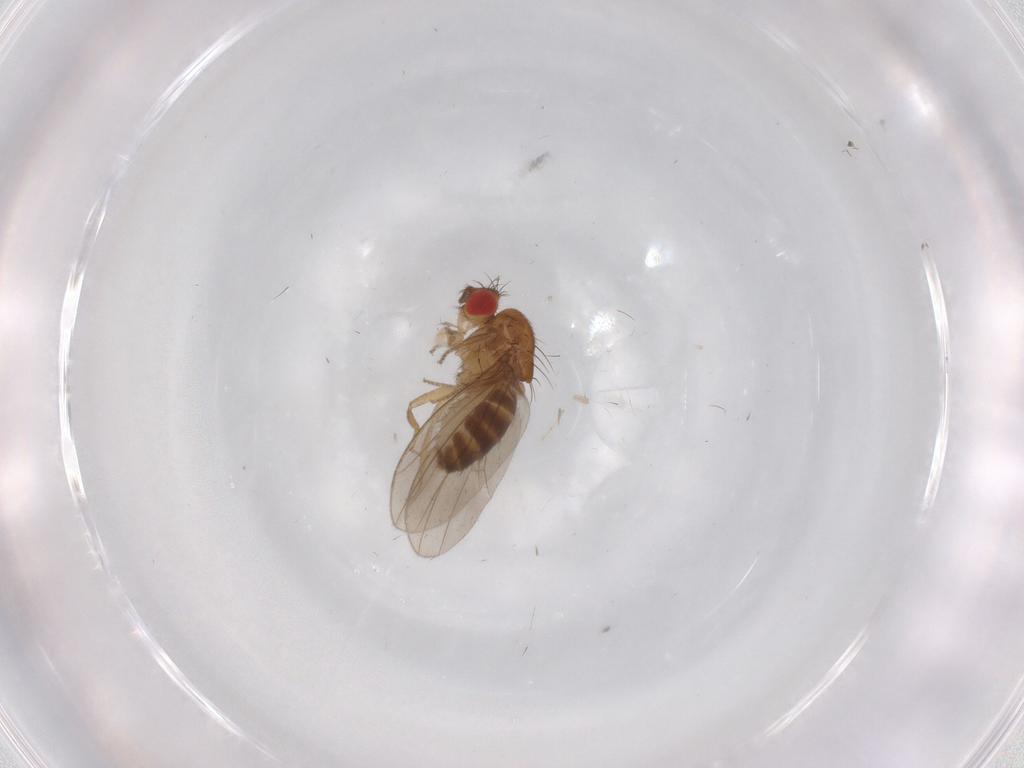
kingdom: Animalia
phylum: Arthropoda
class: Insecta
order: Diptera
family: Drosophilidae
